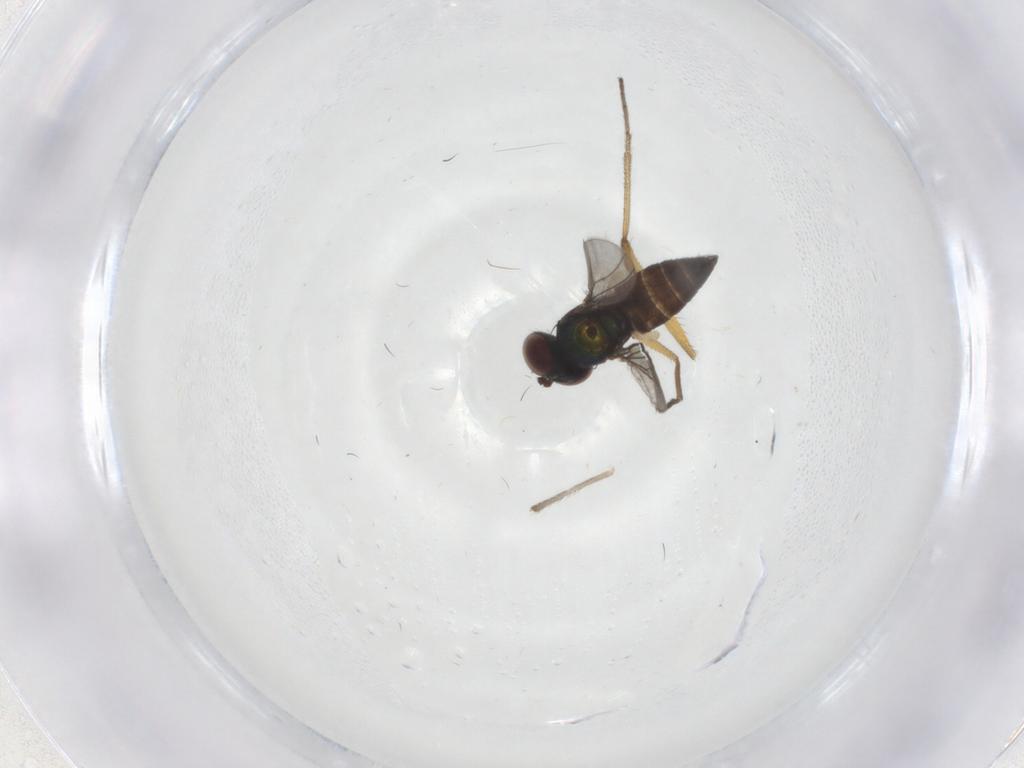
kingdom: Animalia
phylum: Arthropoda
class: Insecta
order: Diptera
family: Dolichopodidae
